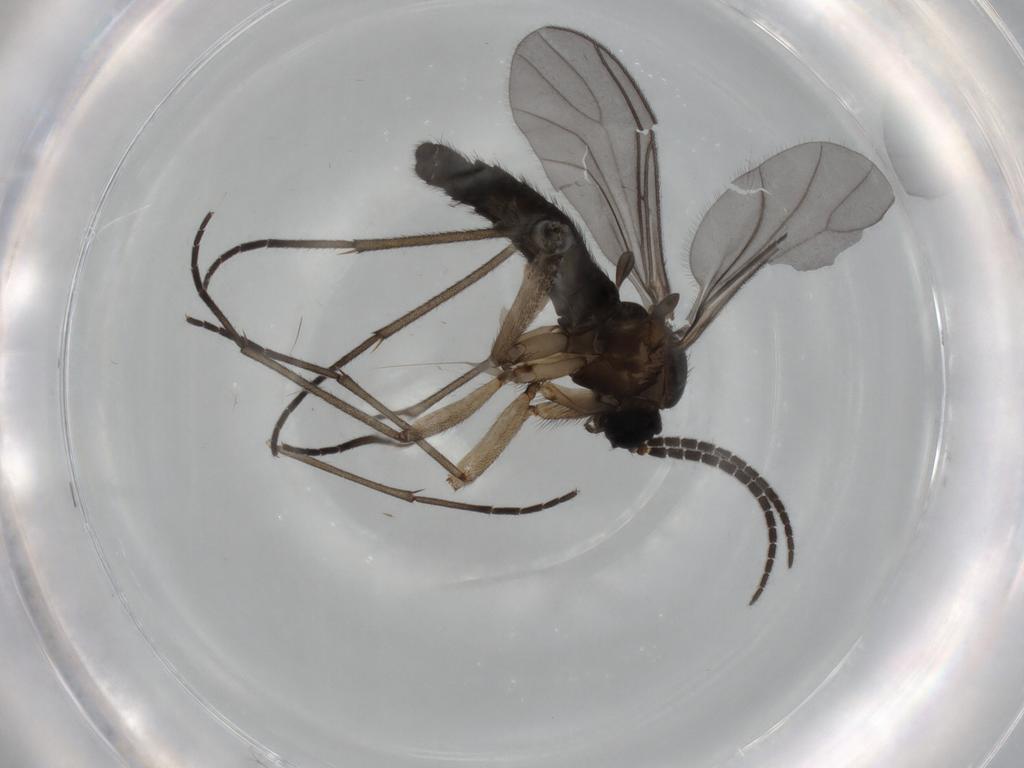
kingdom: Animalia
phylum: Arthropoda
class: Insecta
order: Diptera
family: Sciaridae
